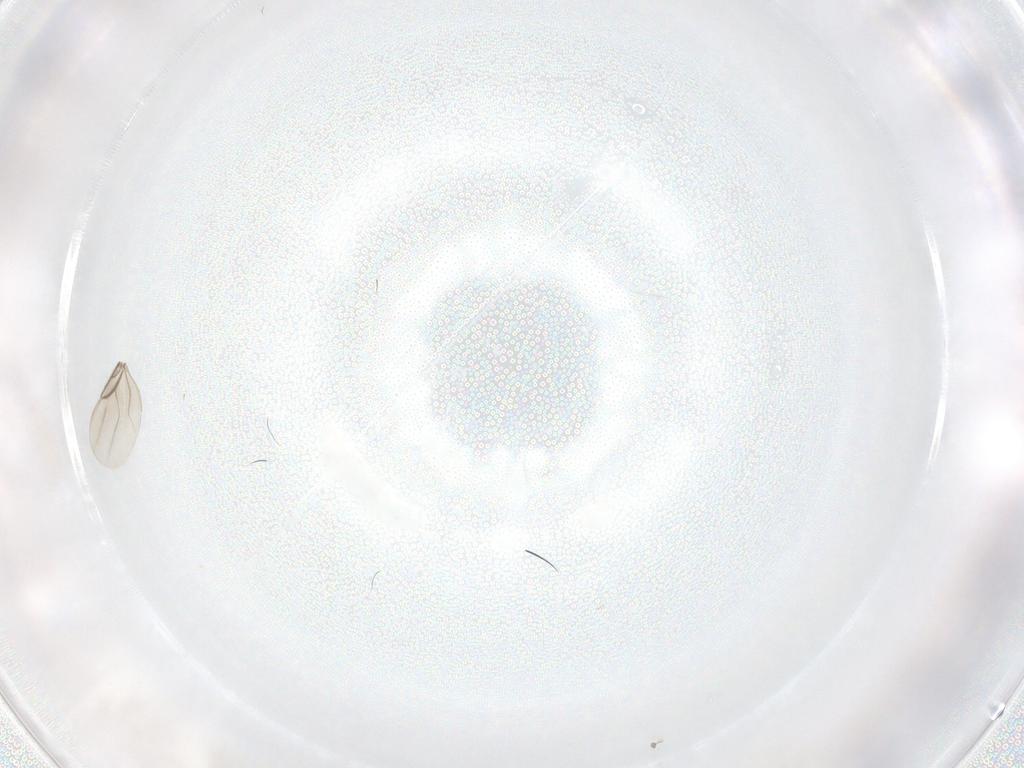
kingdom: Animalia
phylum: Arthropoda
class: Insecta
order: Diptera
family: Phoridae
